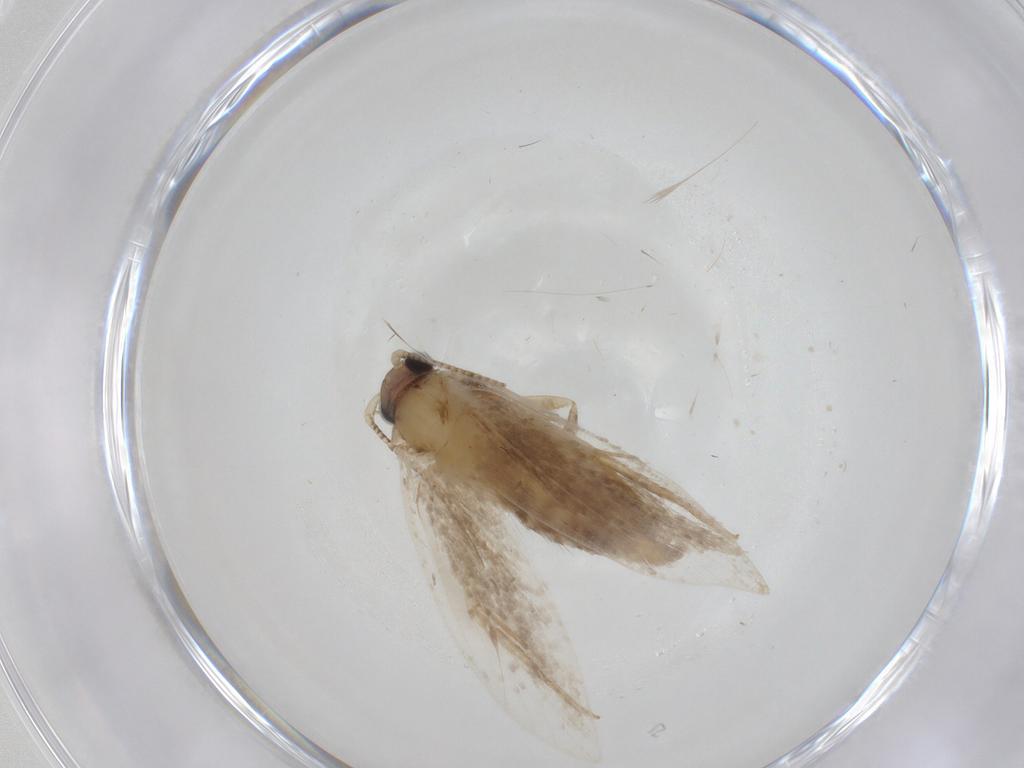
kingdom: Animalia
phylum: Arthropoda
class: Insecta
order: Lepidoptera
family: Tineidae
